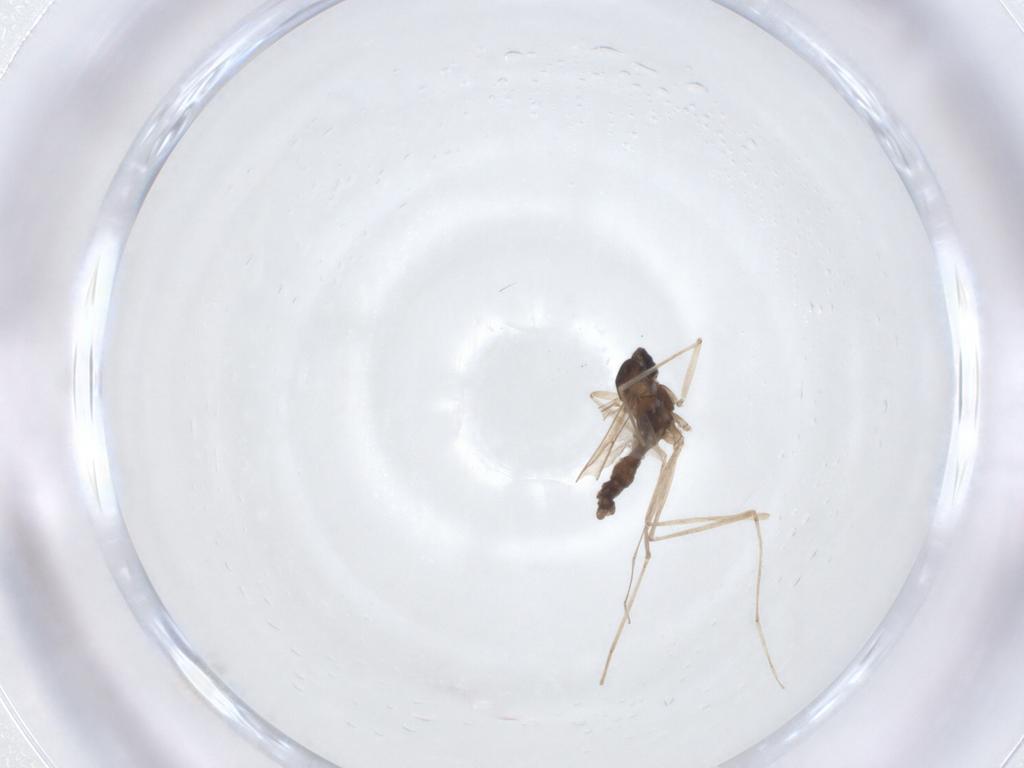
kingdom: Animalia
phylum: Arthropoda
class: Insecta
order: Diptera
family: Cecidomyiidae
